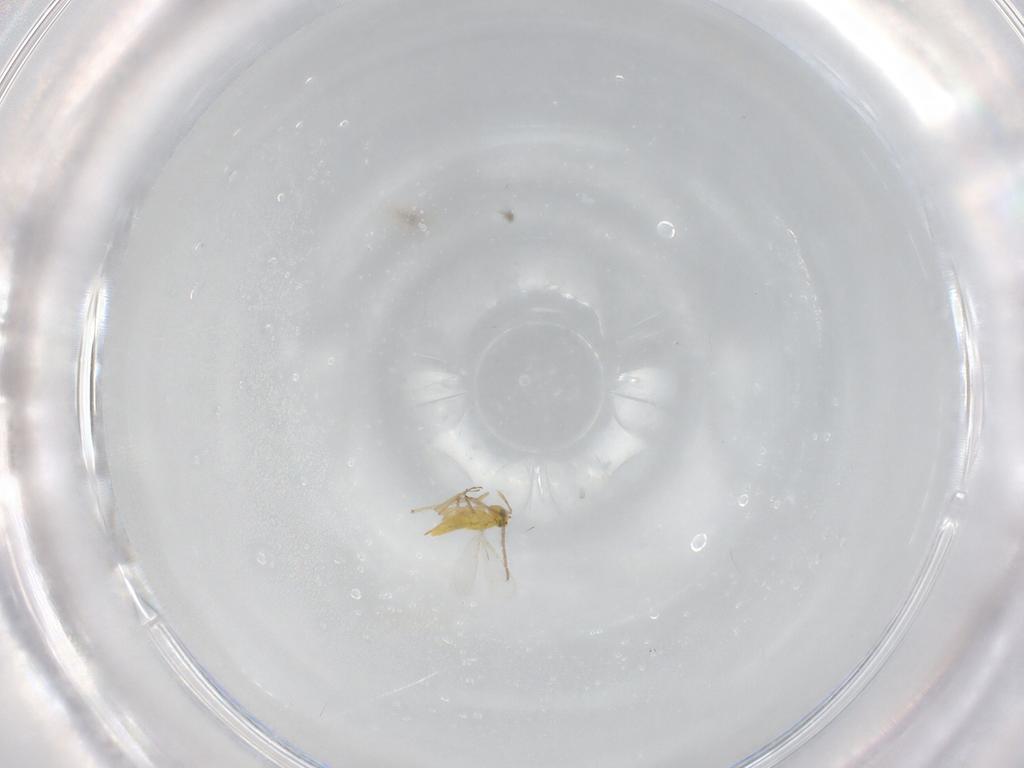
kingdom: Animalia
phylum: Arthropoda
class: Insecta
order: Hymenoptera
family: Aphelinidae
